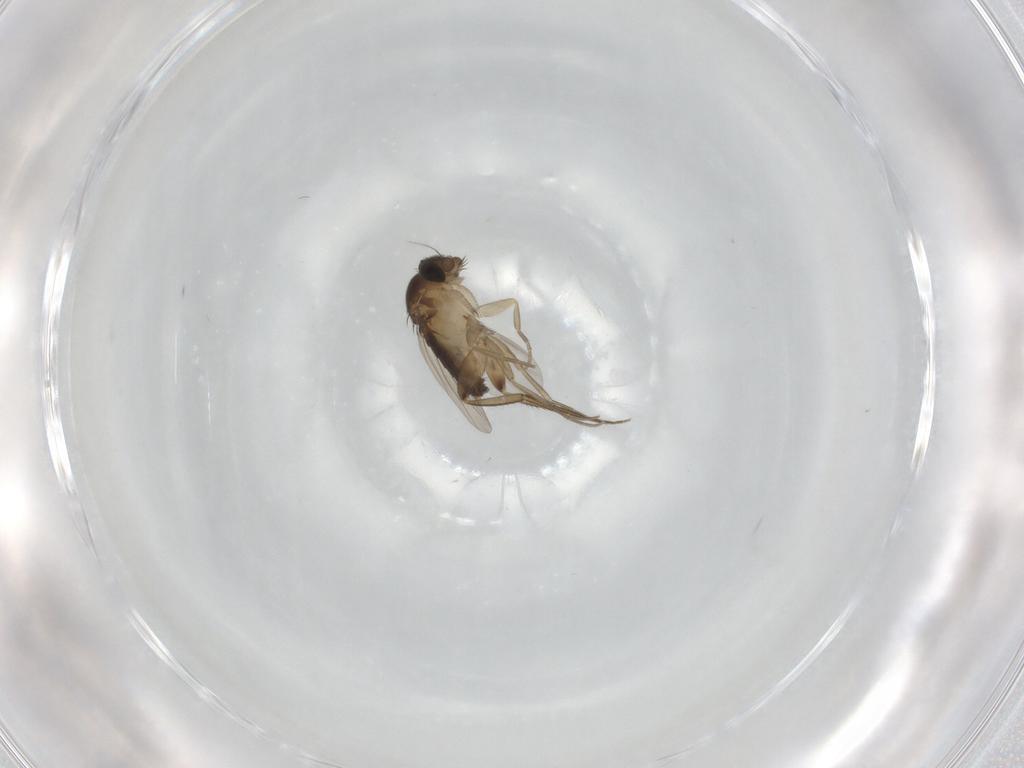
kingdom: Animalia
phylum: Arthropoda
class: Insecta
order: Diptera
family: Phoridae
